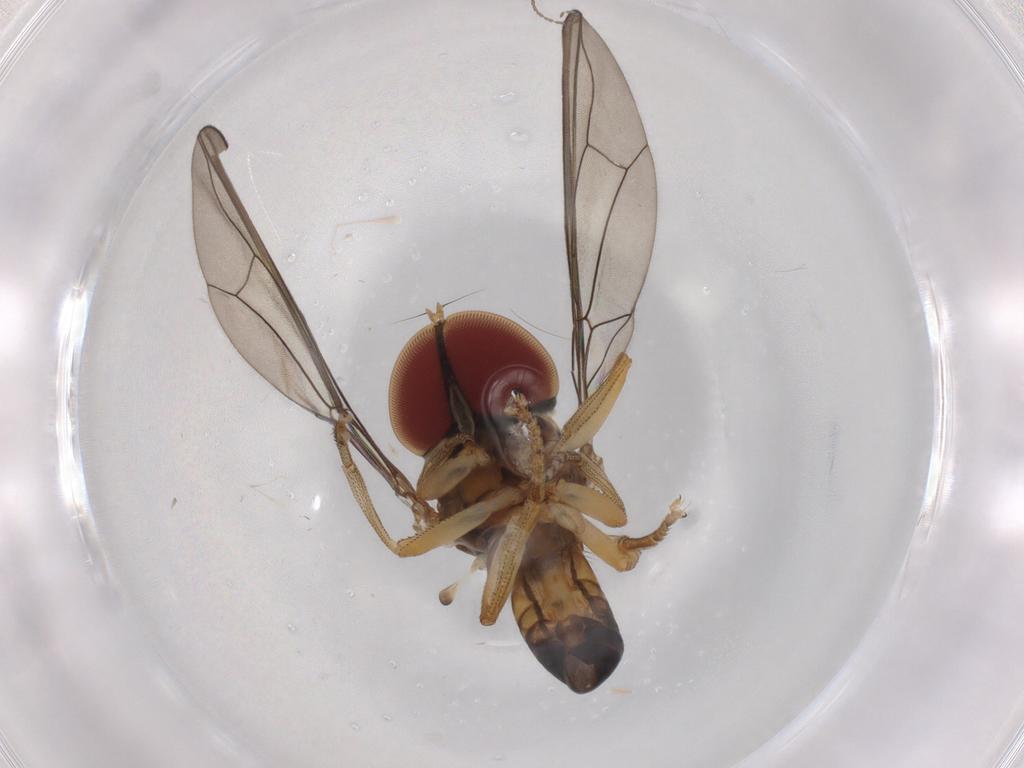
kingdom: Animalia
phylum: Arthropoda
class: Insecta
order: Diptera
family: Pipunculidae
